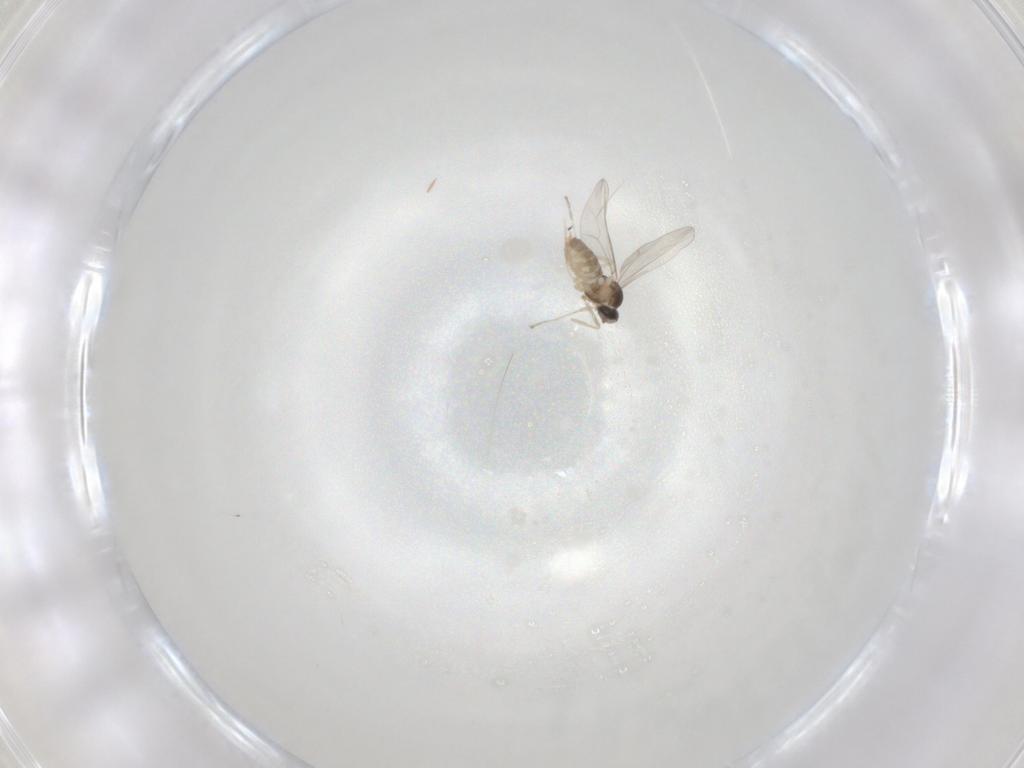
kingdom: Animalia
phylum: Arthropoda
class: Insecta
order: Diptera
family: Cecidomyiidae
